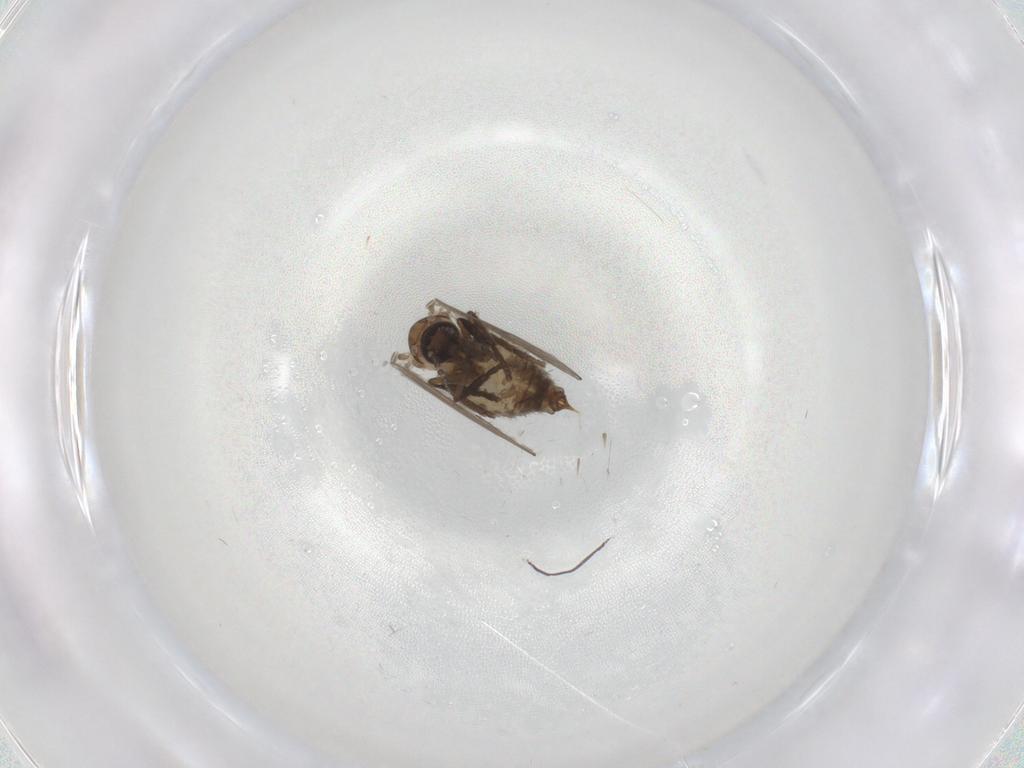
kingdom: Animalia
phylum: Arthropoda
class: Insecta
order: Diptera
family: Psychodidae
